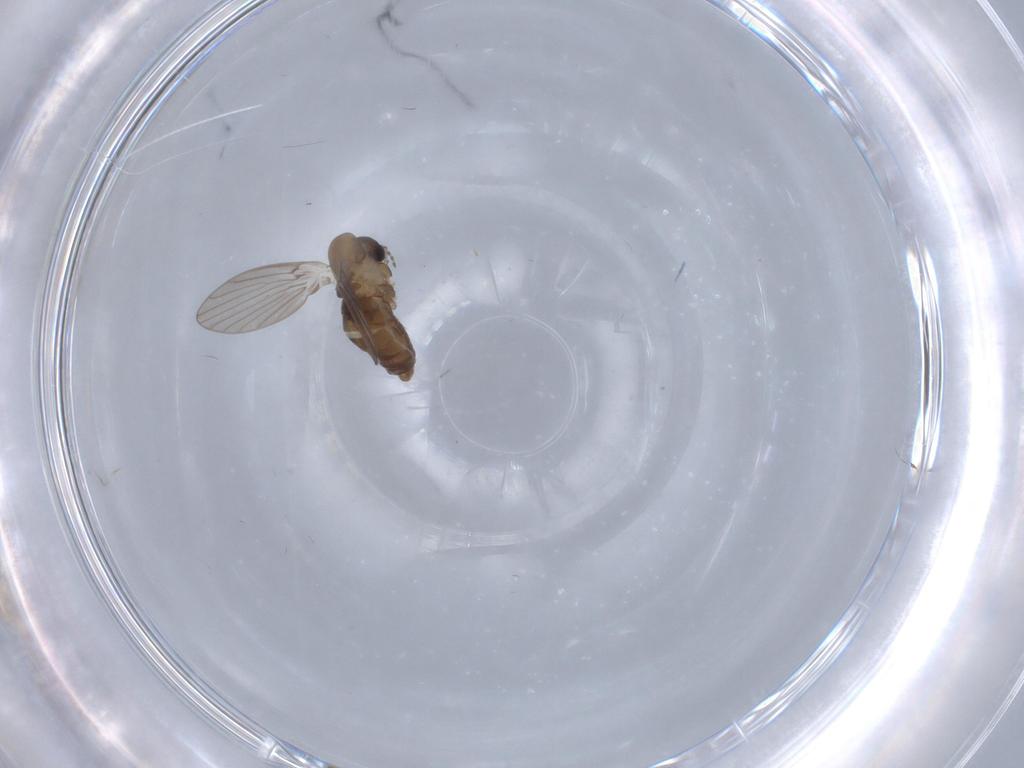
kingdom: Animalia
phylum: Arthropoda
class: Insecta
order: Diptera
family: Psychodidae
